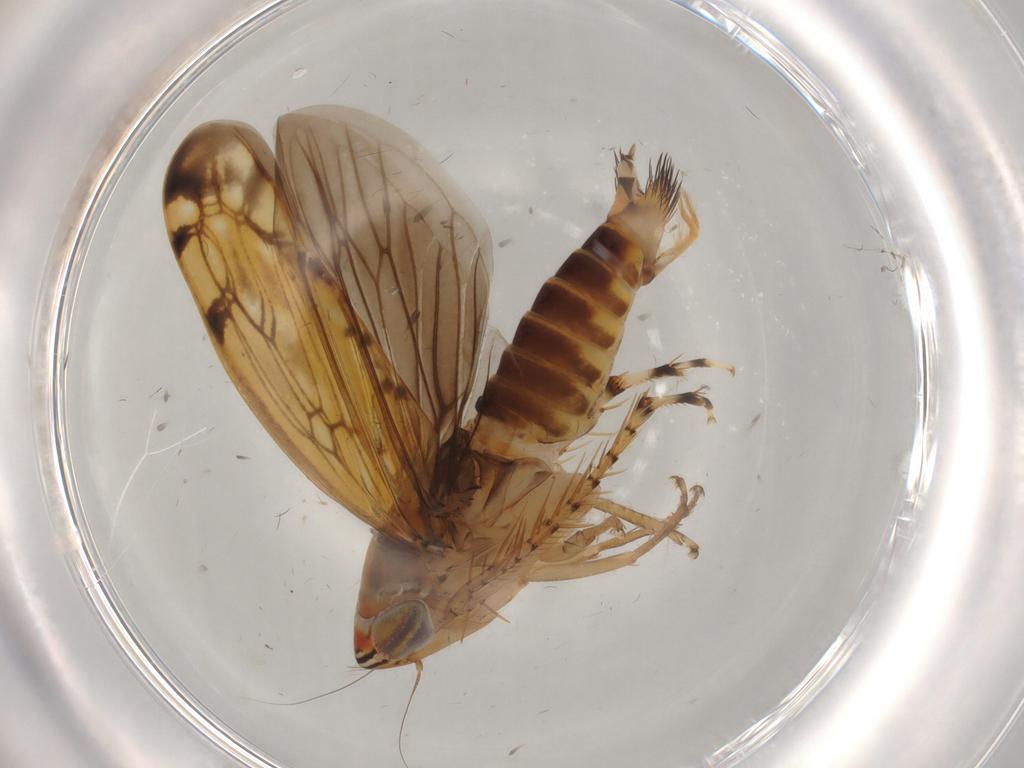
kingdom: Animalia
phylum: Arthropoda
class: Insecta
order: Hemiptera
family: Cicadellidae
